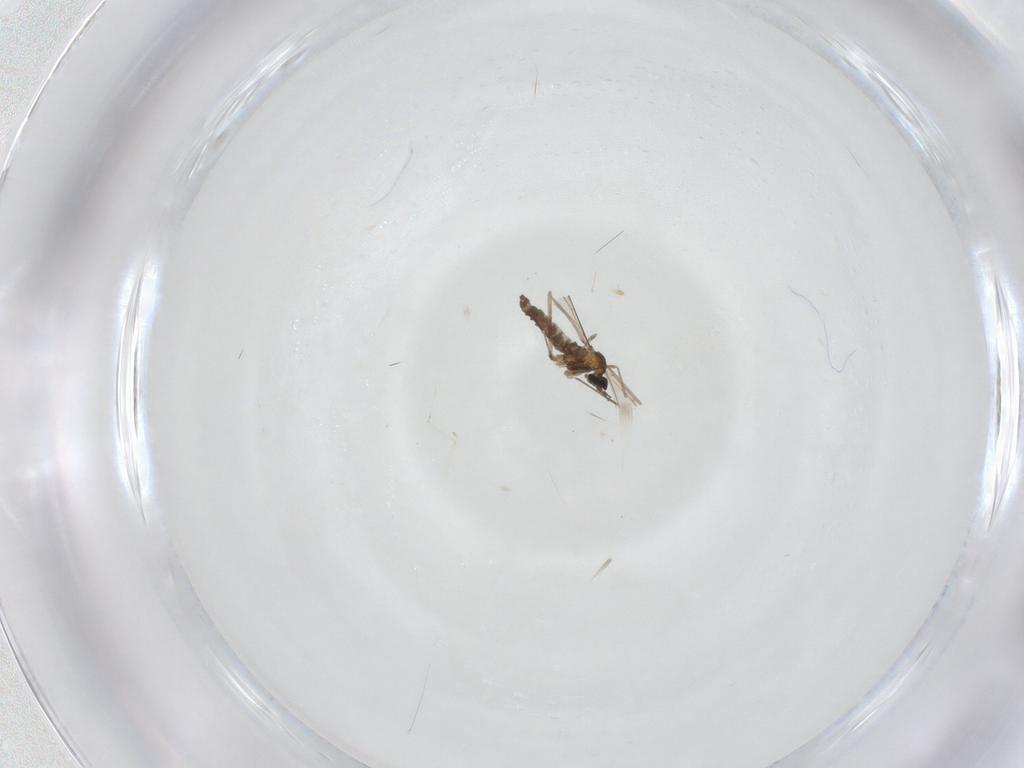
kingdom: Animalia
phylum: Arthropoda
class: Insecta
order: Diptera
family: Cecidomyiidae
